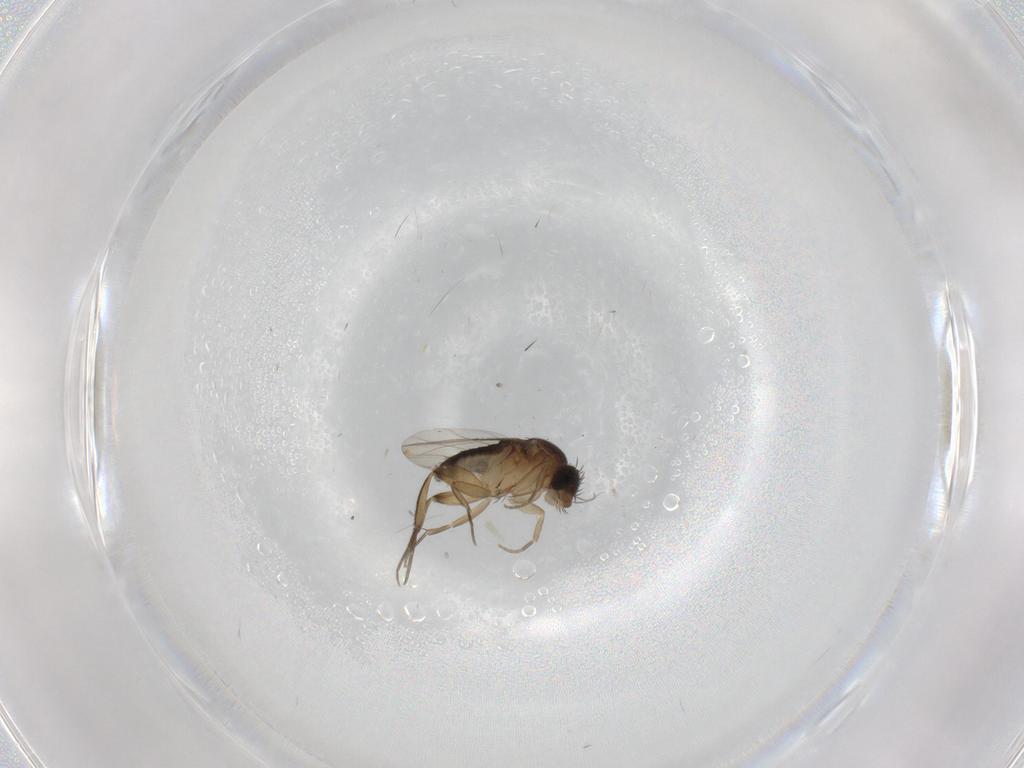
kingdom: Animalia
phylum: Arthropoda
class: Insecta
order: Diptera
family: Phoridae
